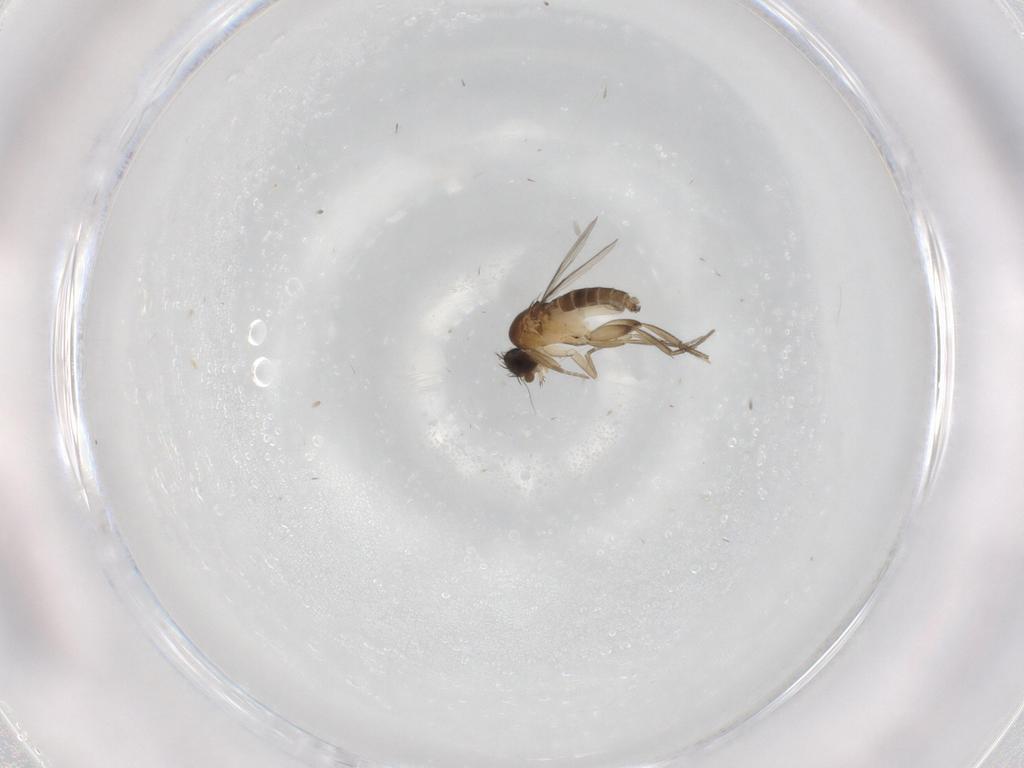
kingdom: Animalia
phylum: Arthropoda
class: Insecta
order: Diptera
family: Phoridae
